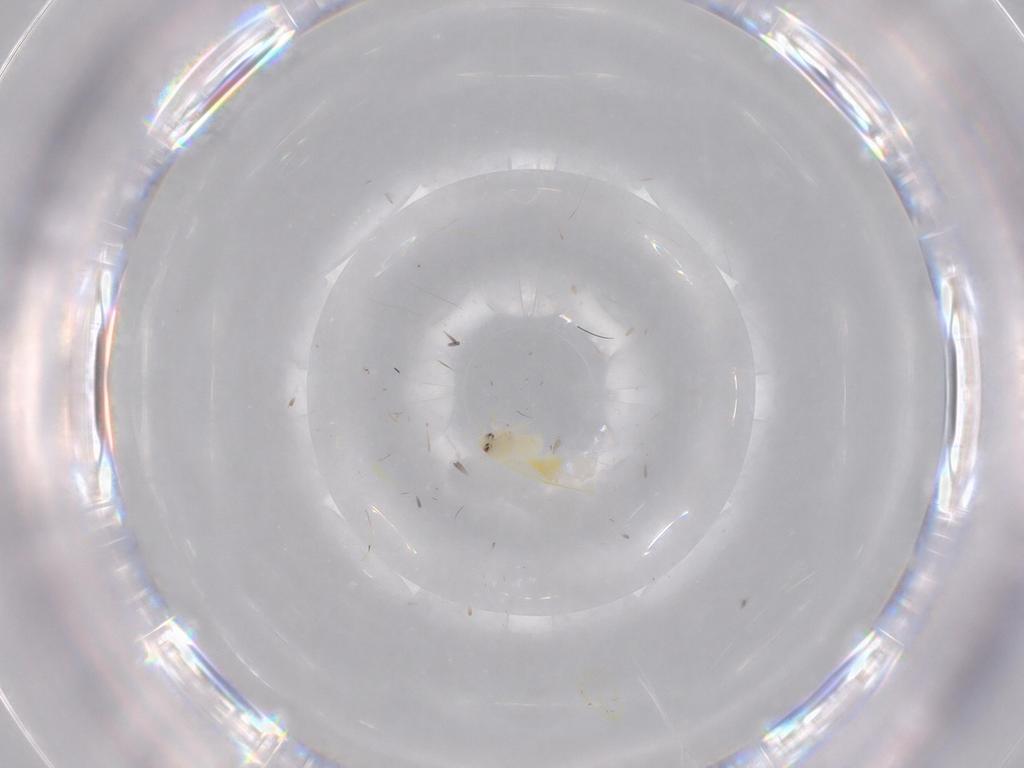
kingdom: Animalia
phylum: Arthropoda
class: Insecta
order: Hemiptera
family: Aleyrodidae
